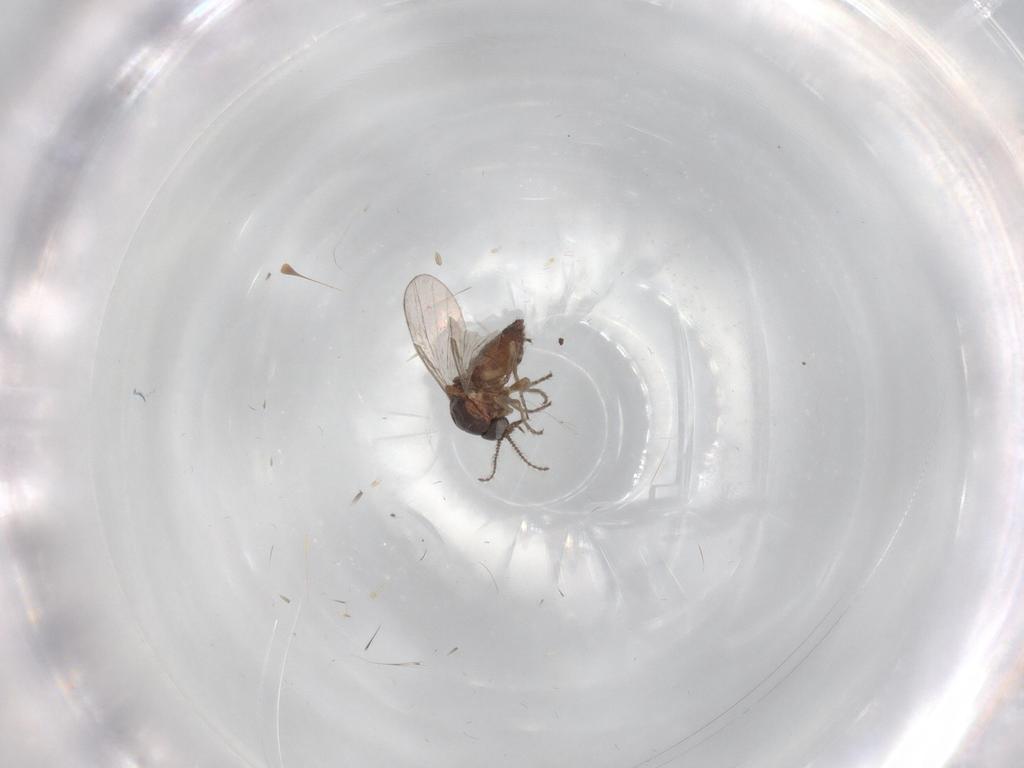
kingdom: Animalia
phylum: Arthropoda
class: Insecta
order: Diptera
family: Ceratopogonidae
